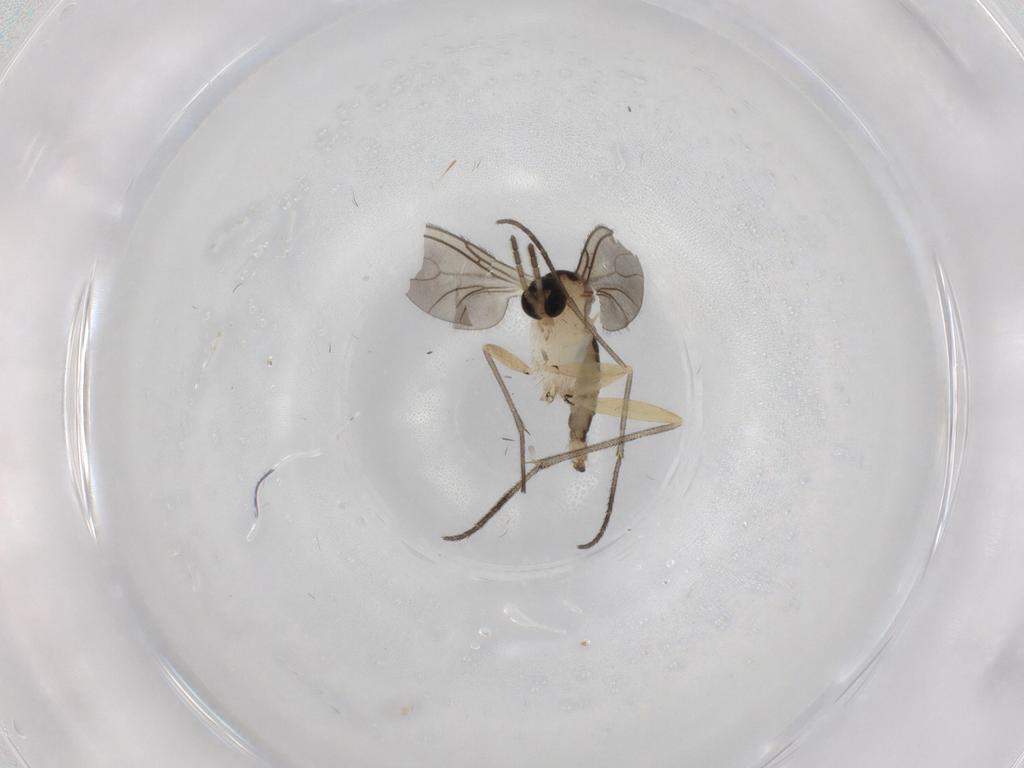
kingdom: Animalia
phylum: Arthropoda
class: Insecta
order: Diptera
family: Sciaridae
